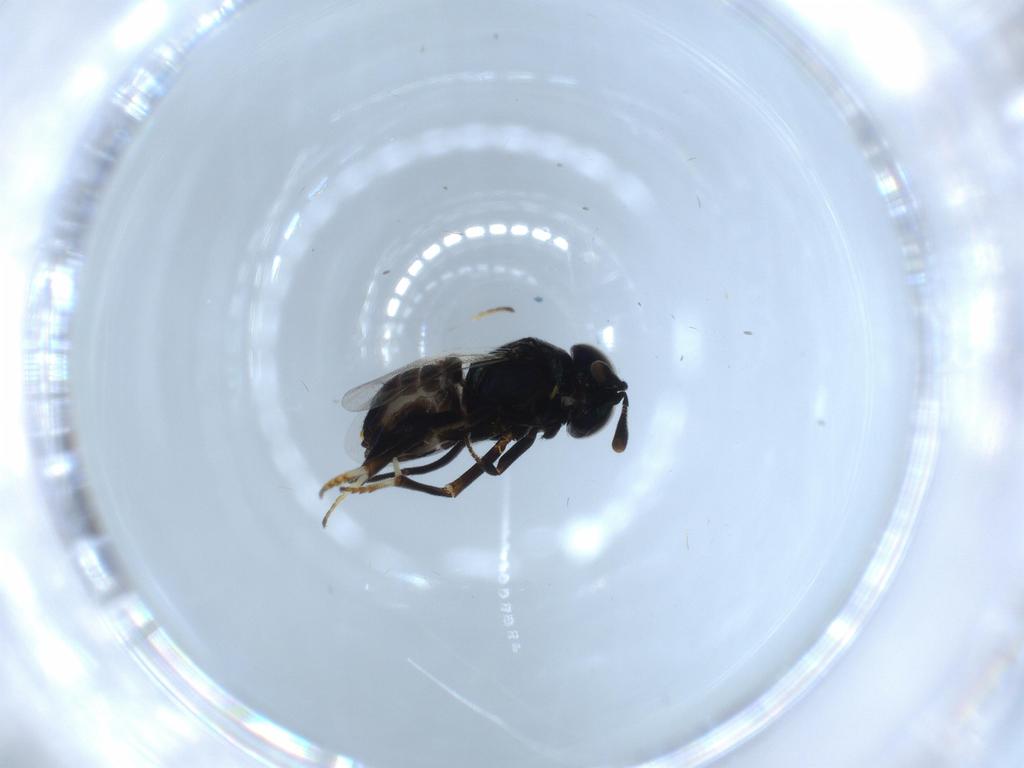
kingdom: Animalia
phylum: Arthropoda
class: Insecta
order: Hymenoptera
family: Encyrtidae
